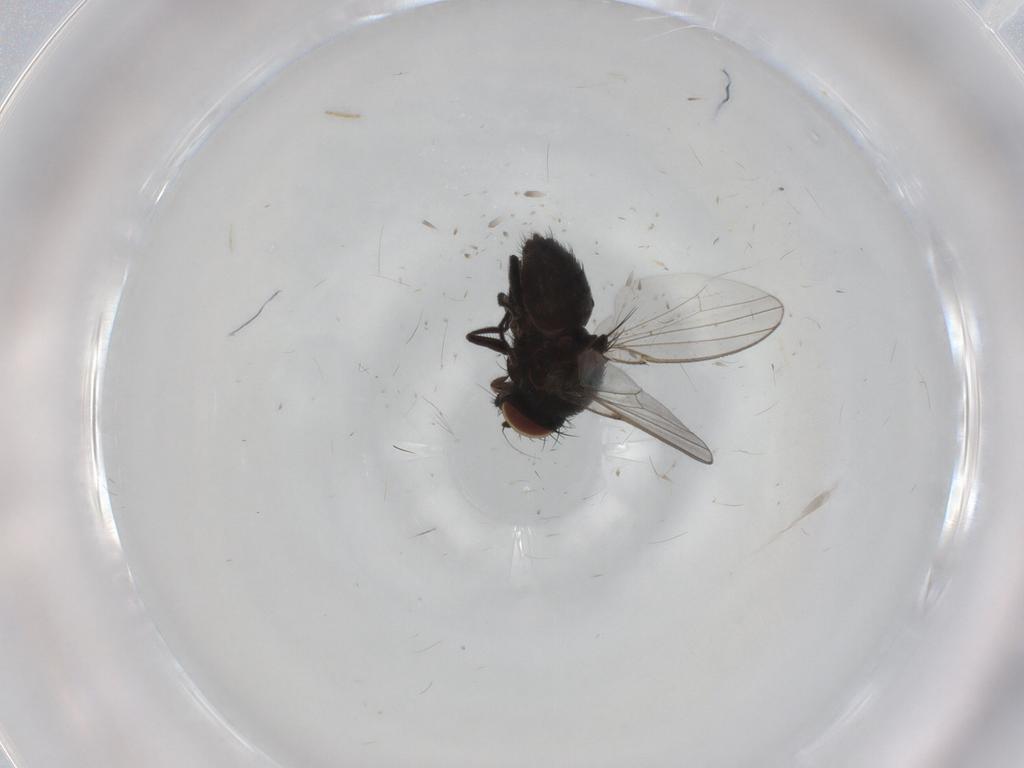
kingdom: Animalia
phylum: Arthropoda
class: Insecta
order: Diptera
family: Milichiidae
